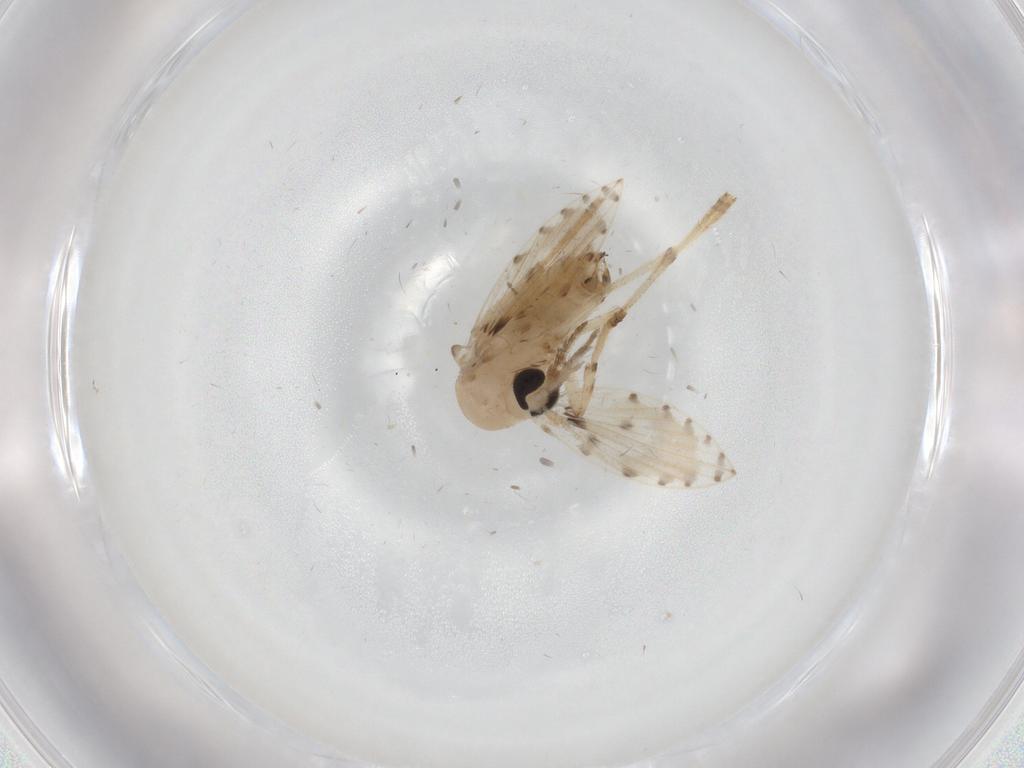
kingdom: Animalia
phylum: Arthropoda
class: Insecta
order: Diptera
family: Psychodidae
